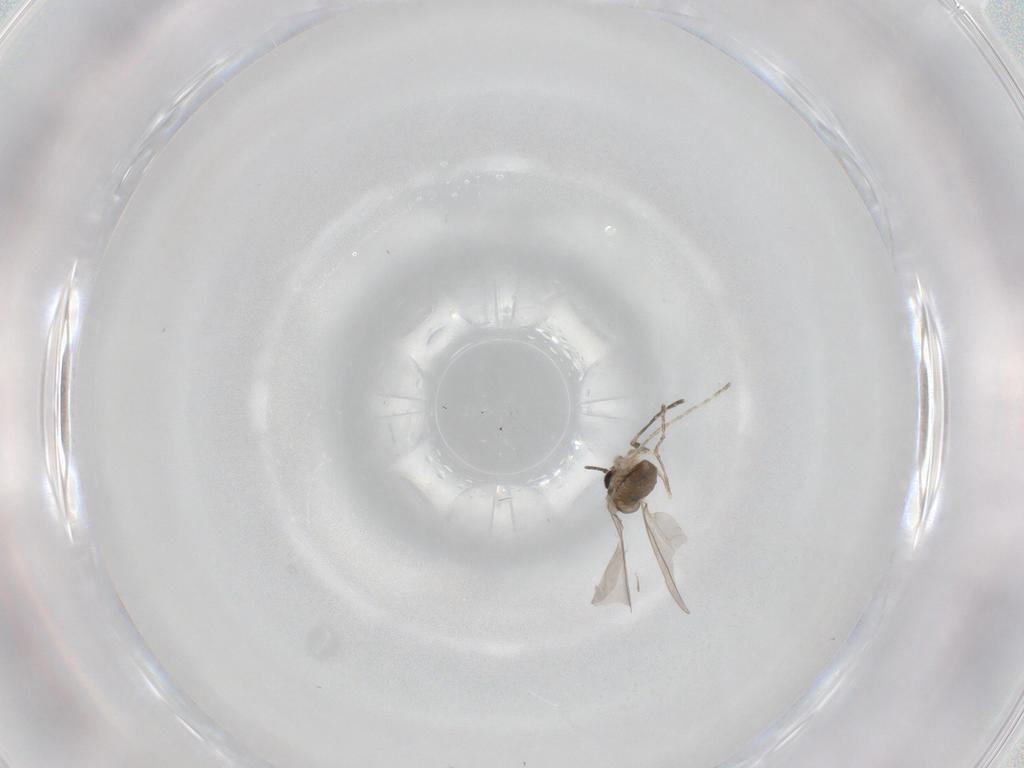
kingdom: Animalia
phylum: Arthropoda
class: Insecta
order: Diptera
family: Cecidomyiidae
